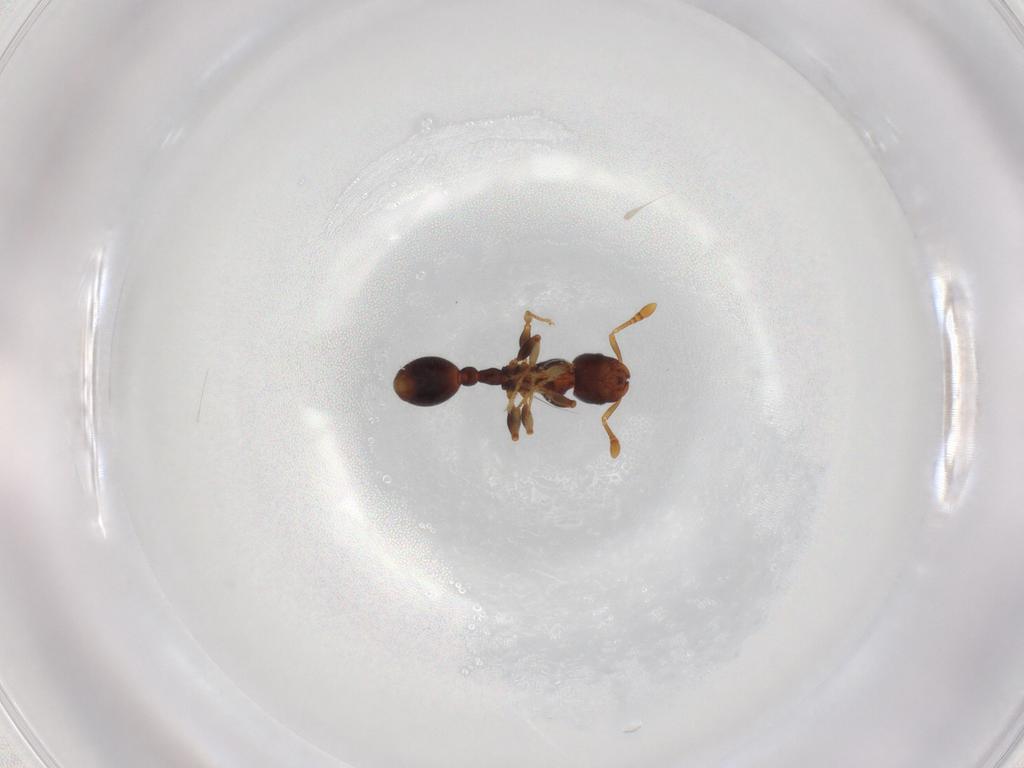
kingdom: Animalia
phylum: Arthropoda
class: Insecta
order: Hymenoptera
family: Formicidae
